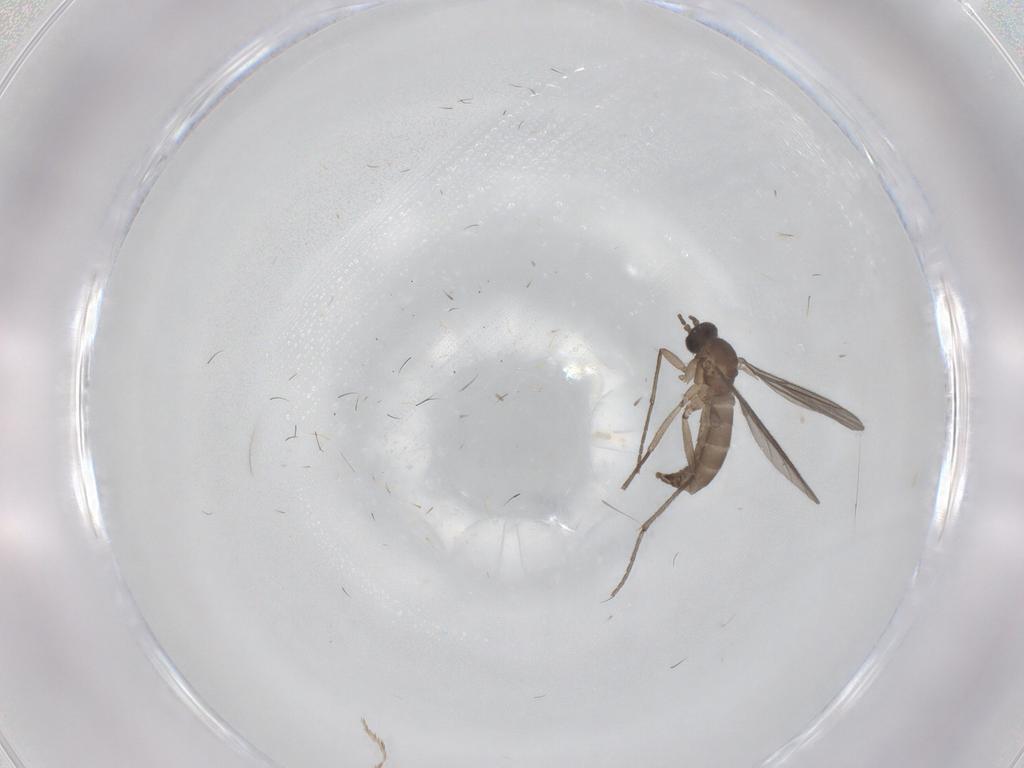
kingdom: Animalia
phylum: Arthropoda
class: Insecta
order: Diptera
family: Sciaridae
